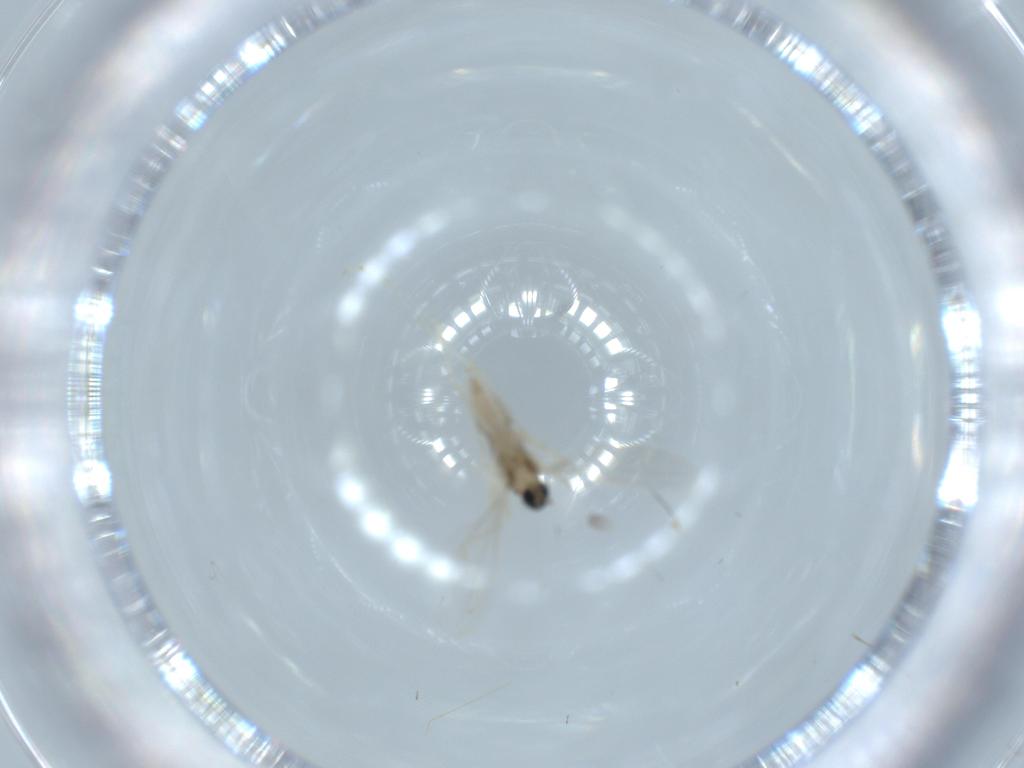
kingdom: Animalia
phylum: Arthropoda
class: Insecta
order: Diptera
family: Cecidomyiidae
